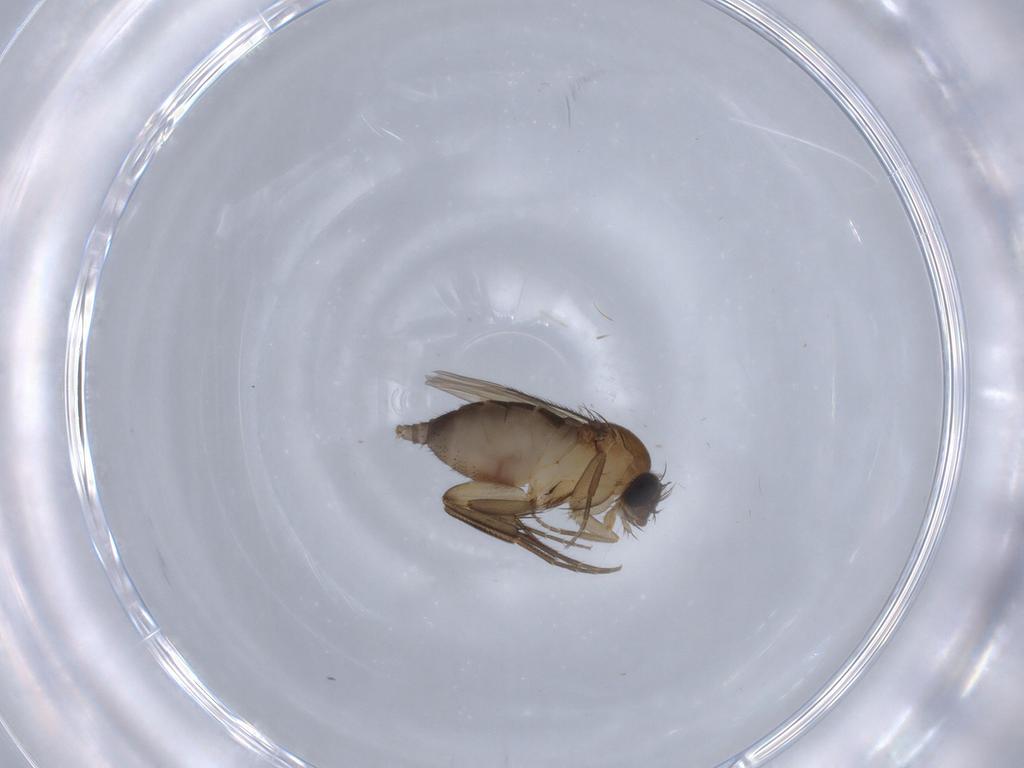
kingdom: Animalia
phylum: Arthropoda
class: Insecta
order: Diptera
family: Phoridae
